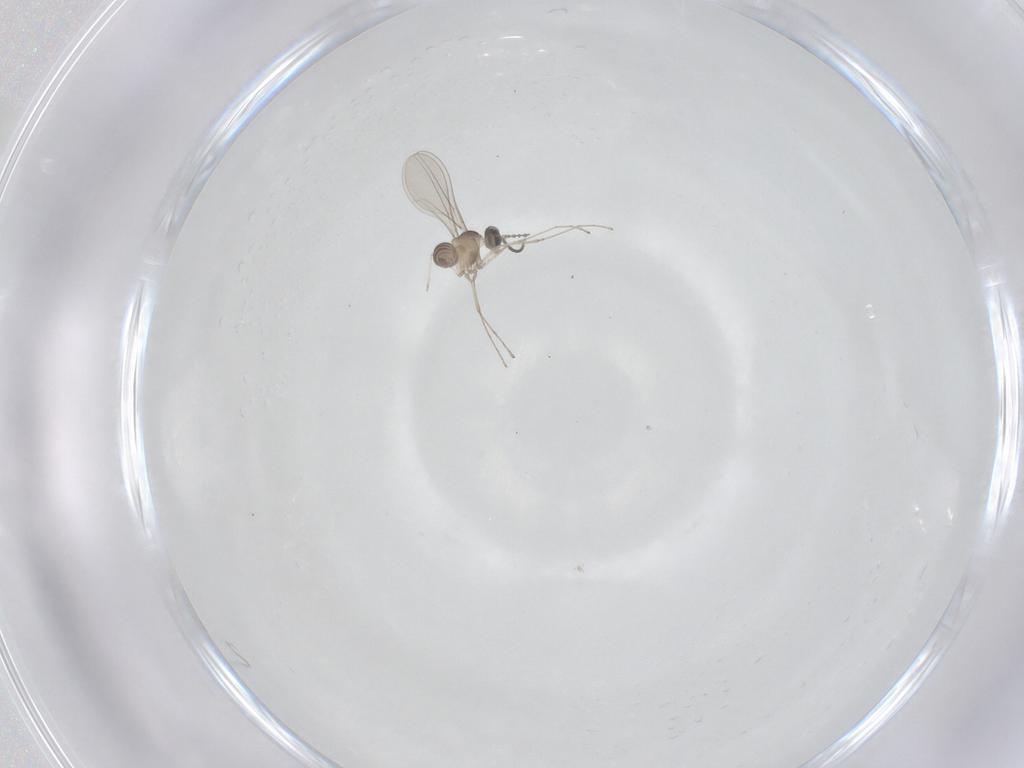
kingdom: Animalia
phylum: Arthropoda
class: Insecta
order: Diptera
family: Cecidomyiidae
